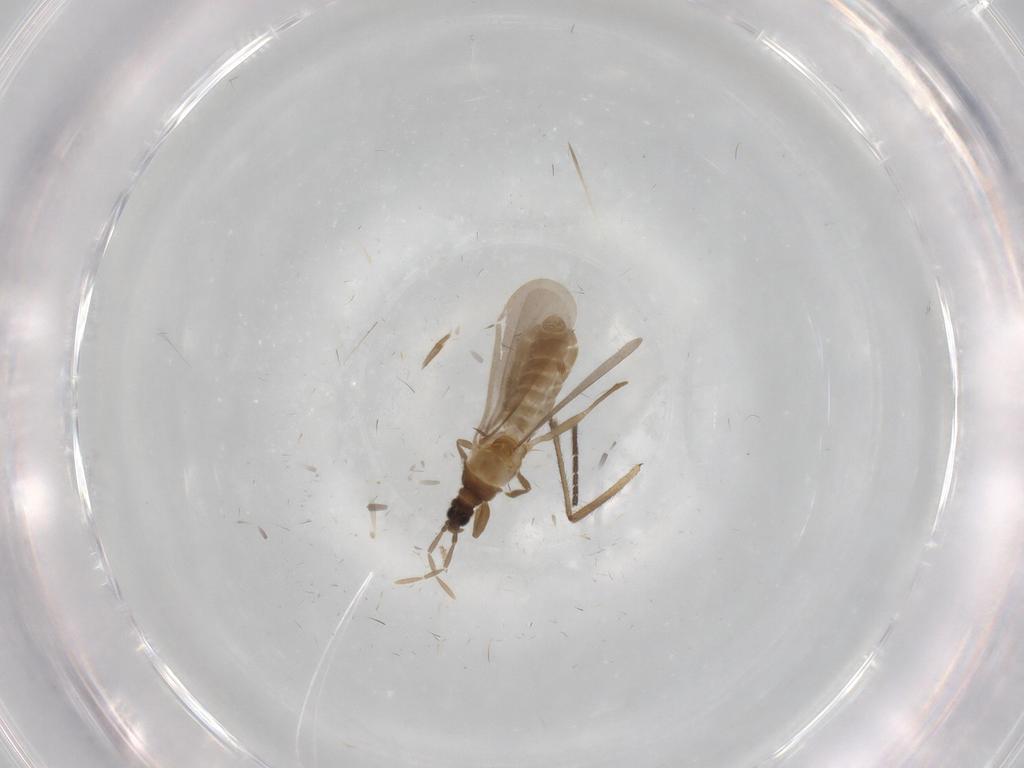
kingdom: Animalia
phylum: Arthropoda
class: Insecta
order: Hemiptera
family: Enicocephalidae
